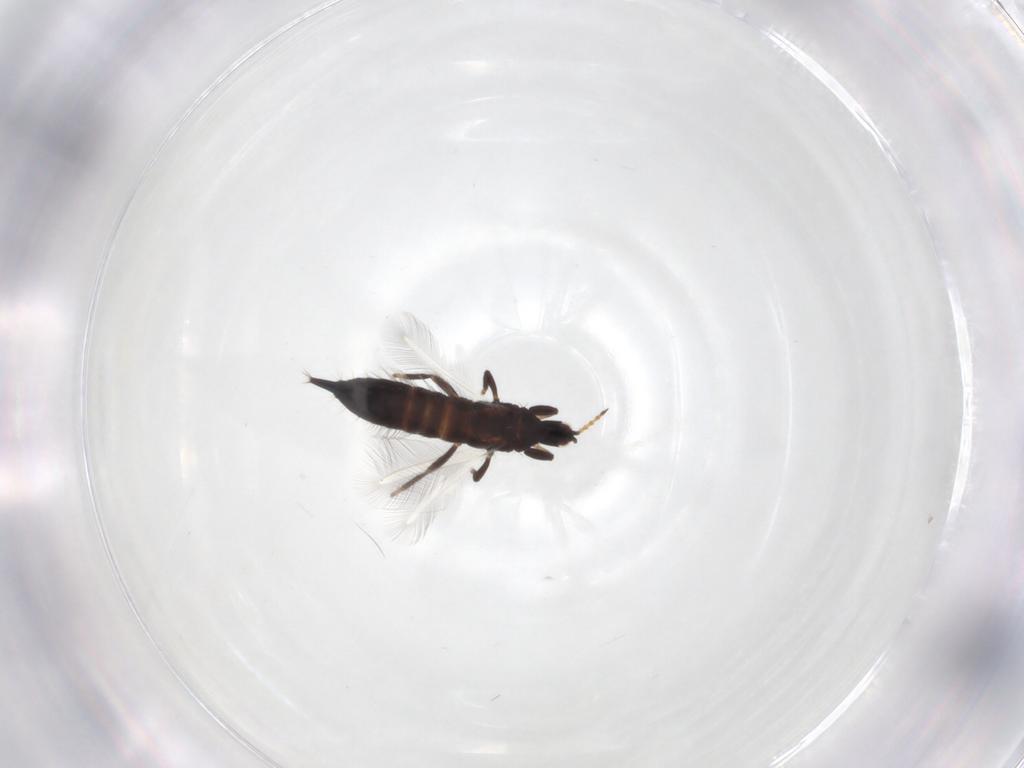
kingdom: Animalia
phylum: Arthropoda
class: Insecta
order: Thysanoptera
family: Phlaeothripidae
